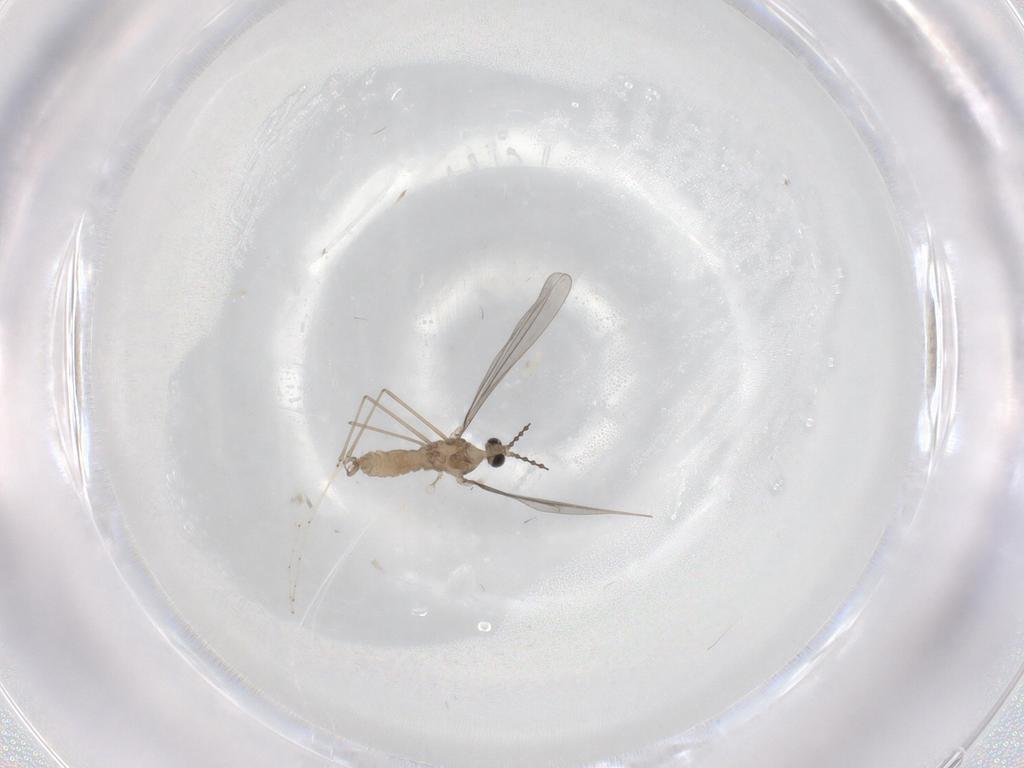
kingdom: Animalia
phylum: Arthropoda
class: Insecta
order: Diptera
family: Cecidomyiidae
